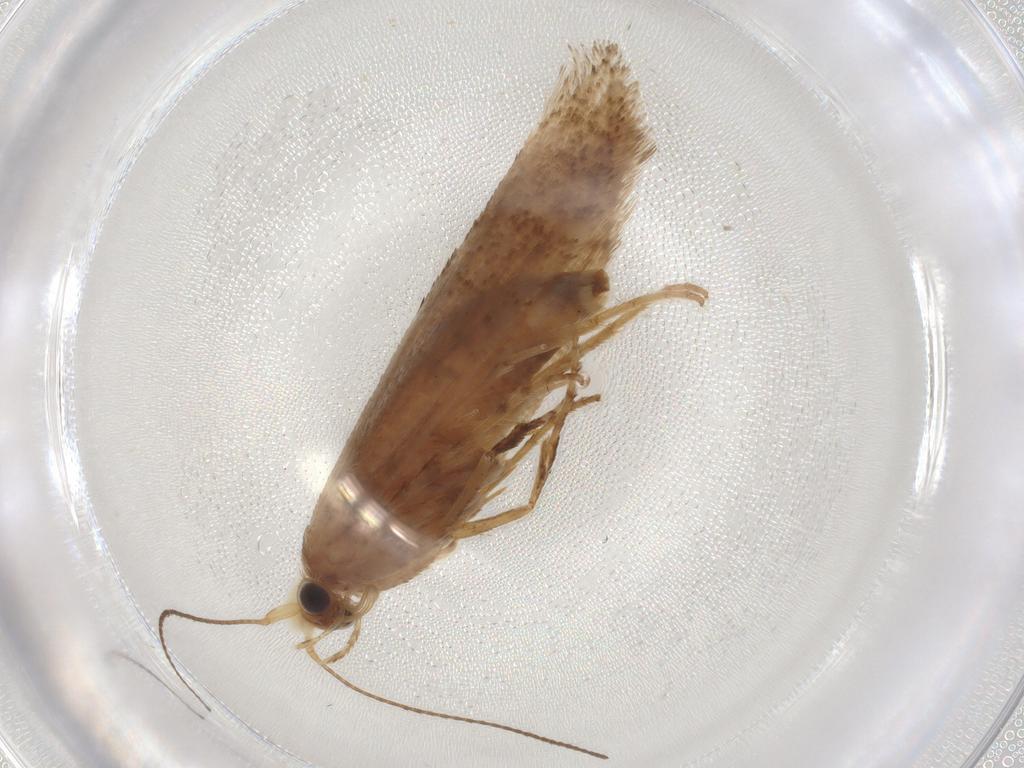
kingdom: Animalia
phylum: Arthropoda
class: Insecta
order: Lepidoptera
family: Argyresthiidae
